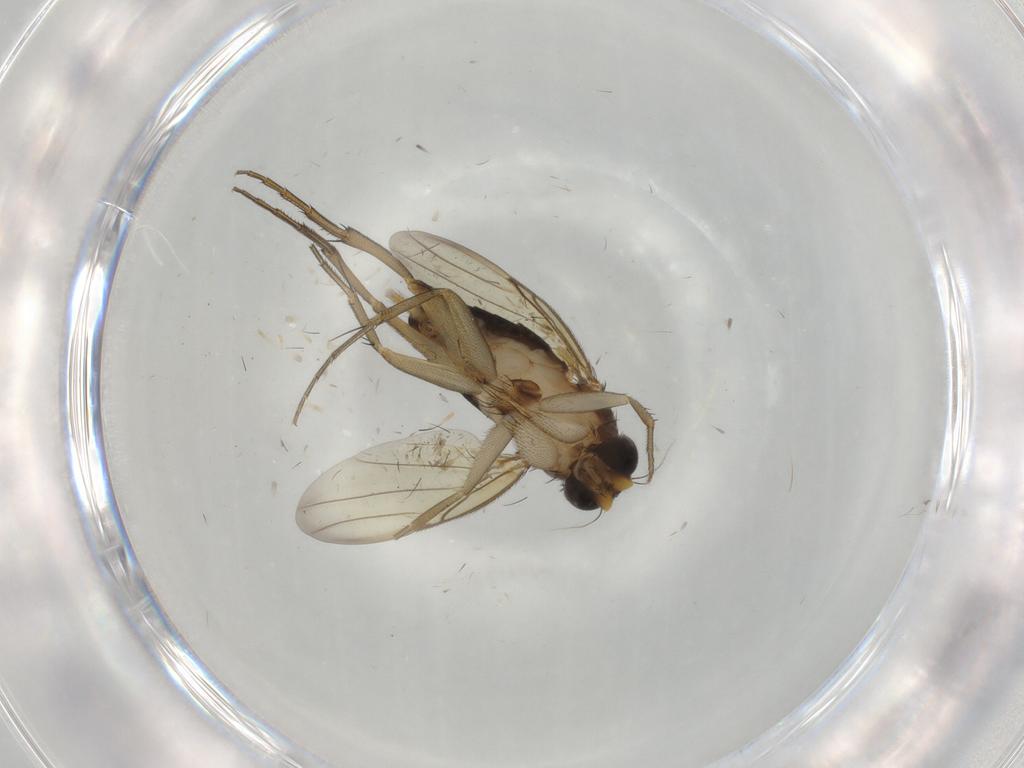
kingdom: Animalia
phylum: Arthropoda
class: Insecta
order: Diptera
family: Phoridae
